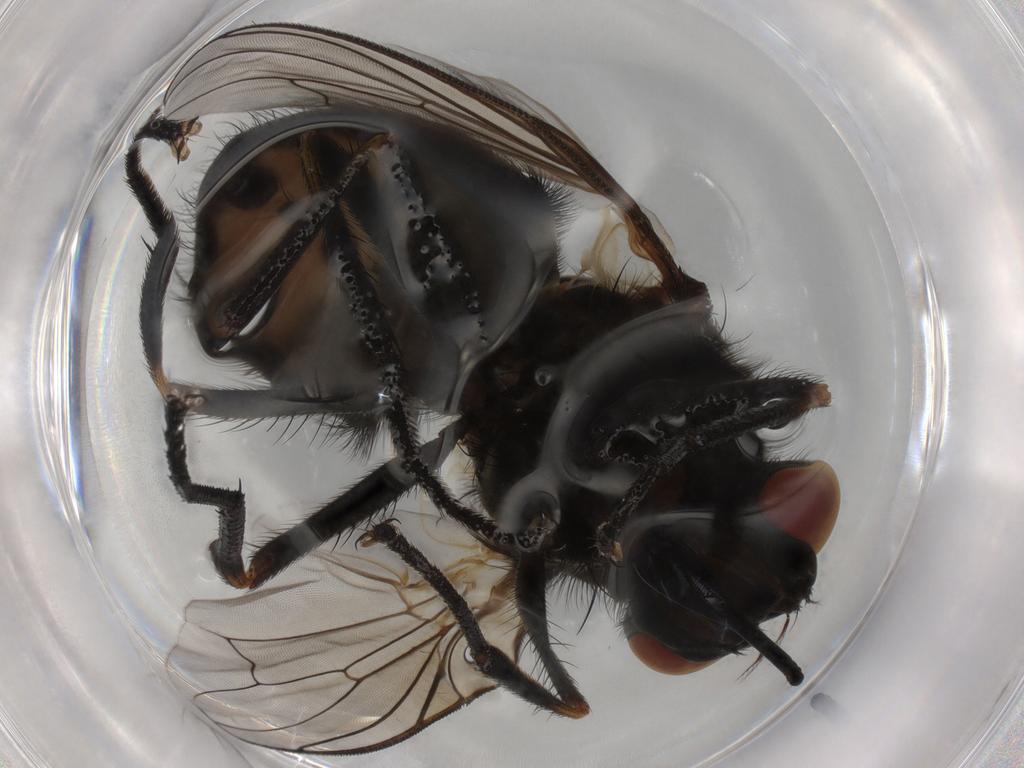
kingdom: Animalia
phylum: Arthropoda
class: Insecta
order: Diptera
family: Muscidae
